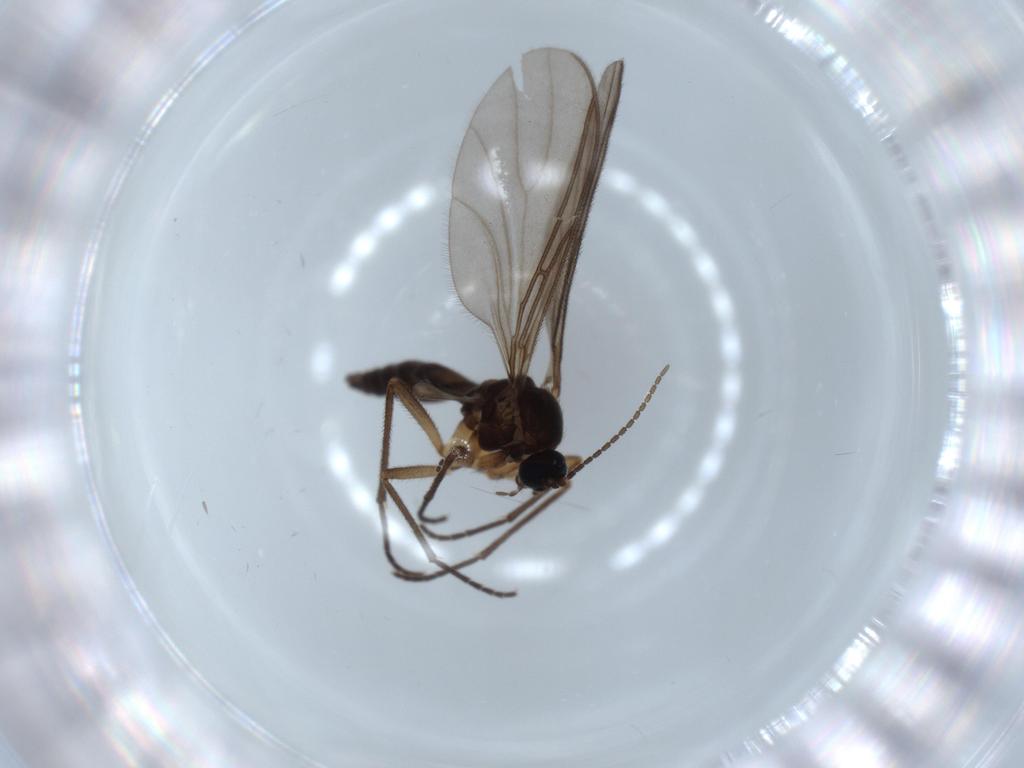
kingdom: Animalia
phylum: Arthropoda
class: Insecta
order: Diptera
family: Sciaridae
